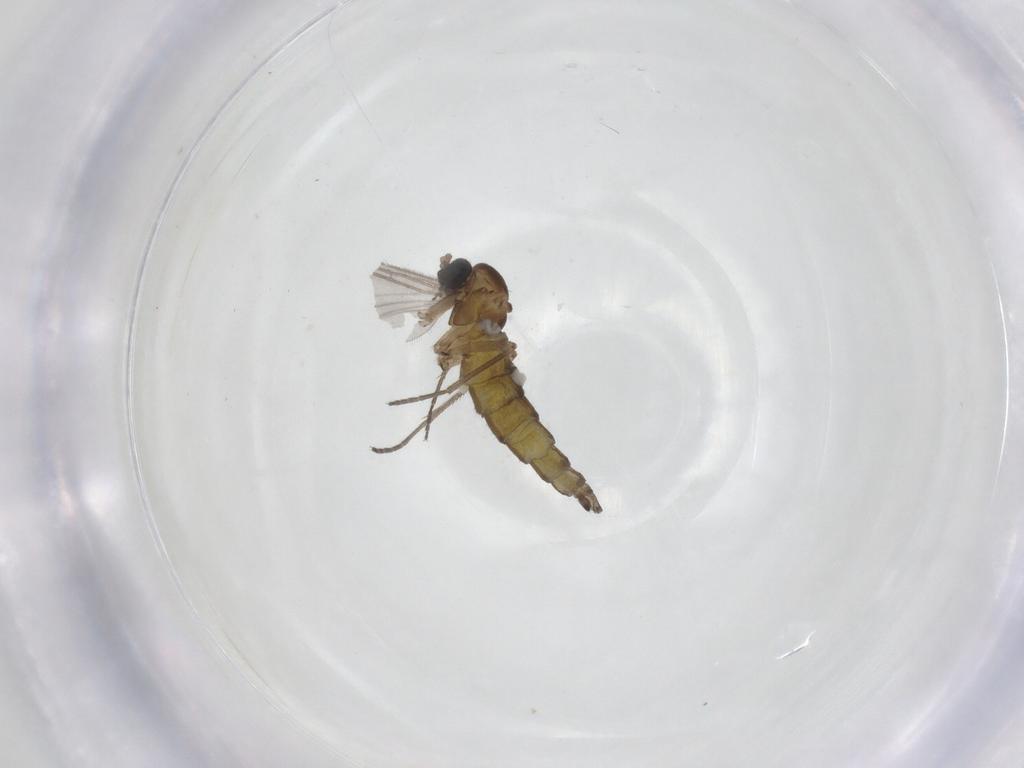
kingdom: Animalia
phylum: Arthropoda
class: Insecta
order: Diptera
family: Sciaridae
